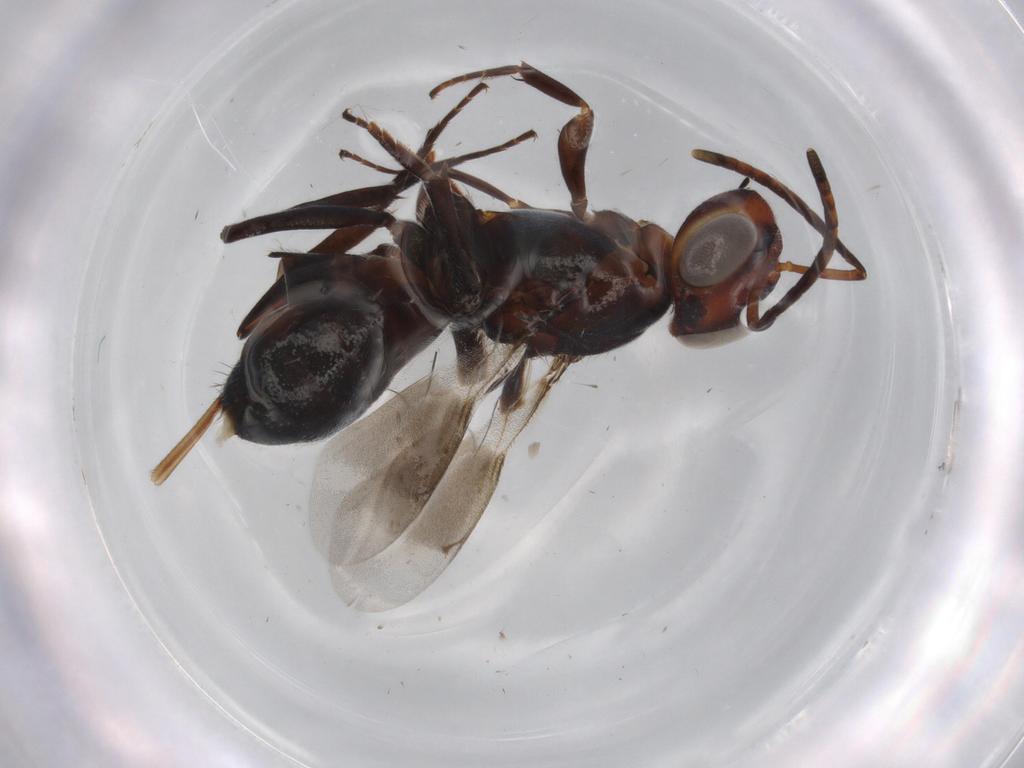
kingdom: Animalia
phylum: Arthropoda
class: Insecta
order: Hymenoptera
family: Eupelmidae
